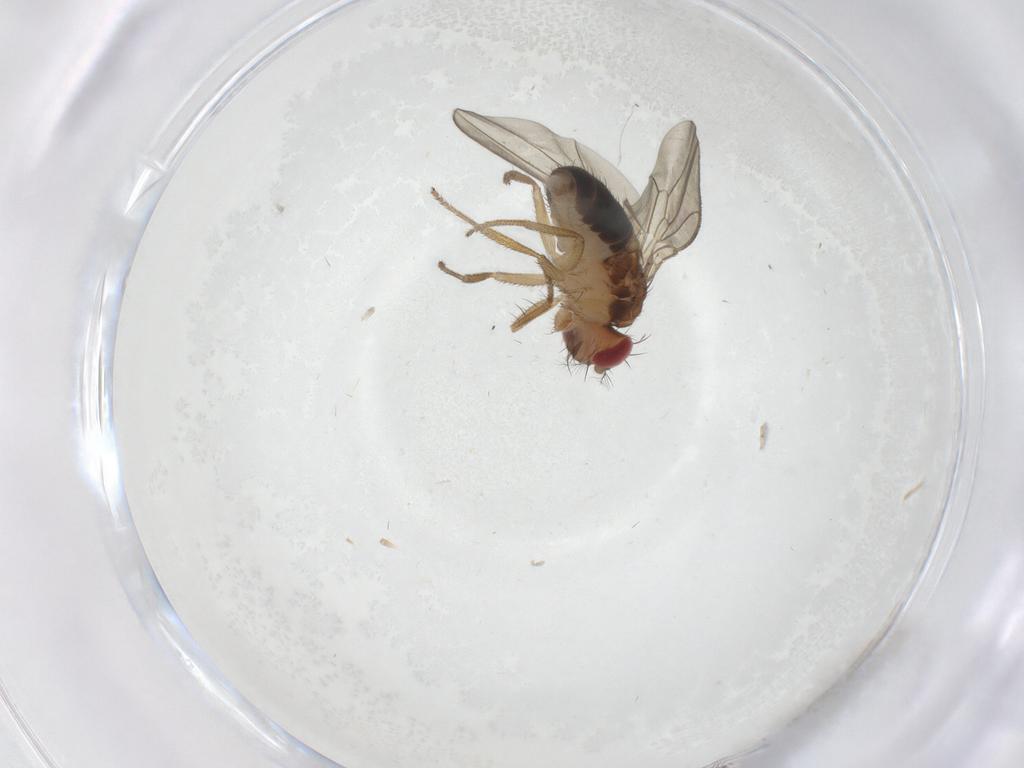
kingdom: Animalia
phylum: Arthropoda
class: Insecta
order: Diptera
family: Drosophilidae
